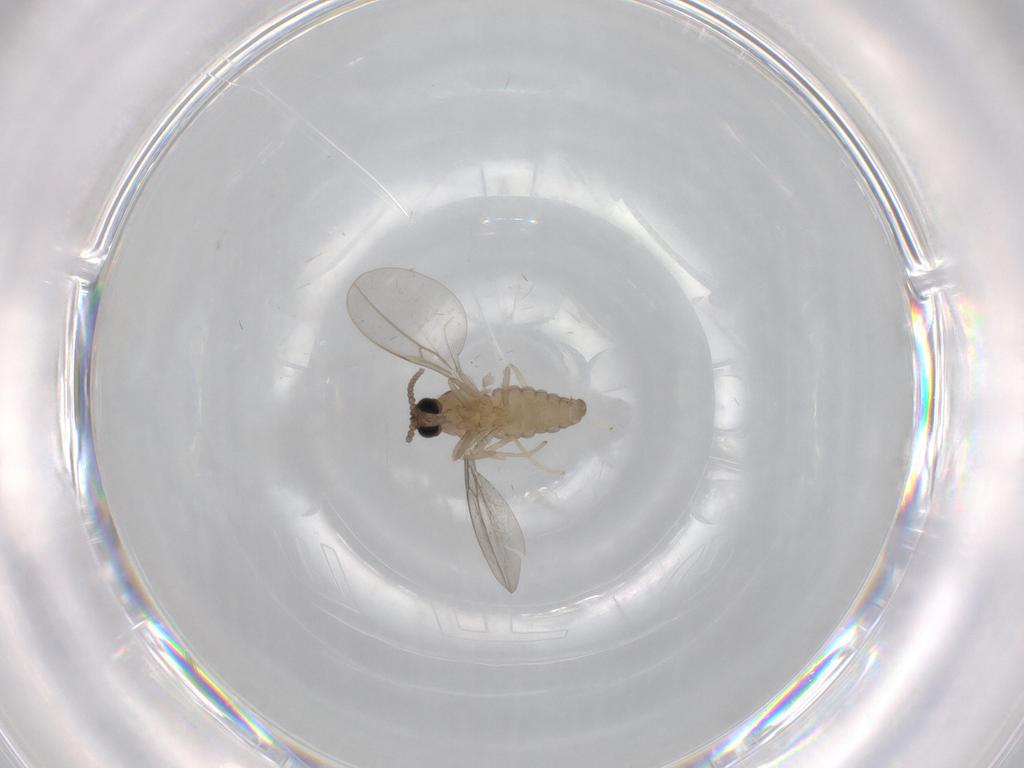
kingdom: Animalia
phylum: Arthropoda
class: Insecta
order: Diptera
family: Cecidomyiidae
